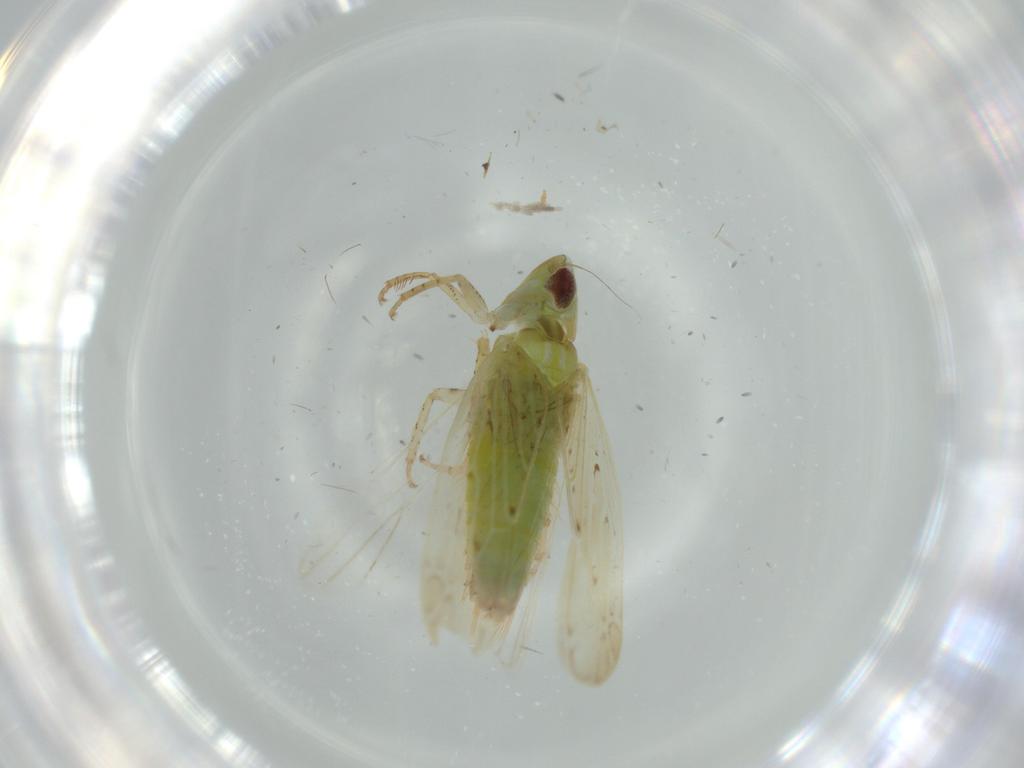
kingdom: Animalia
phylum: Arthropoda
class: Insecta
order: Hemiptera
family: Cicadellidae
